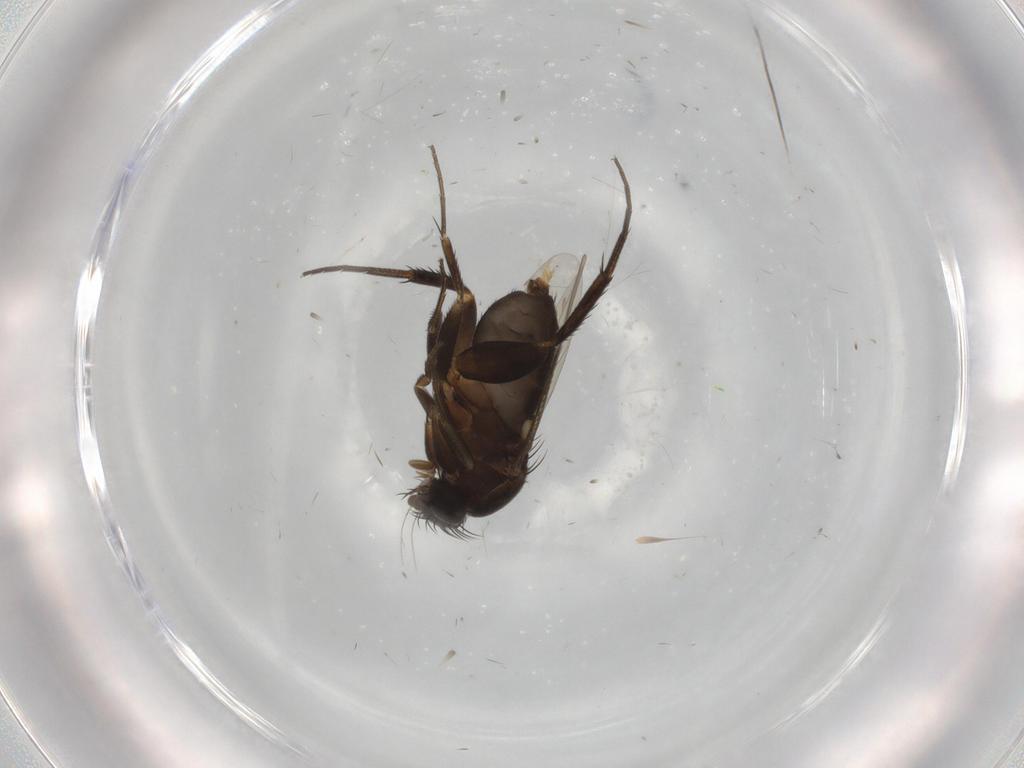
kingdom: Animalia
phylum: Arthropoda
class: Insecta
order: Diptera
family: Phoridae
